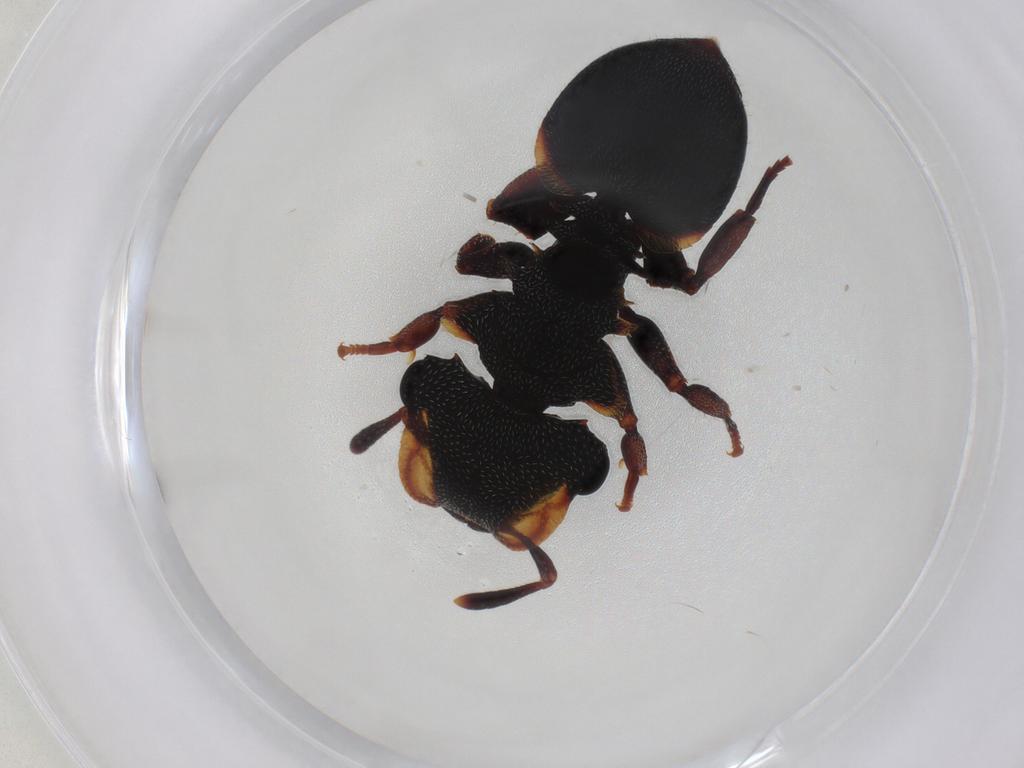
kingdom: Animalia
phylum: Arthropoda
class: Insecta
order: Hymenoptera
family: Formicidae
